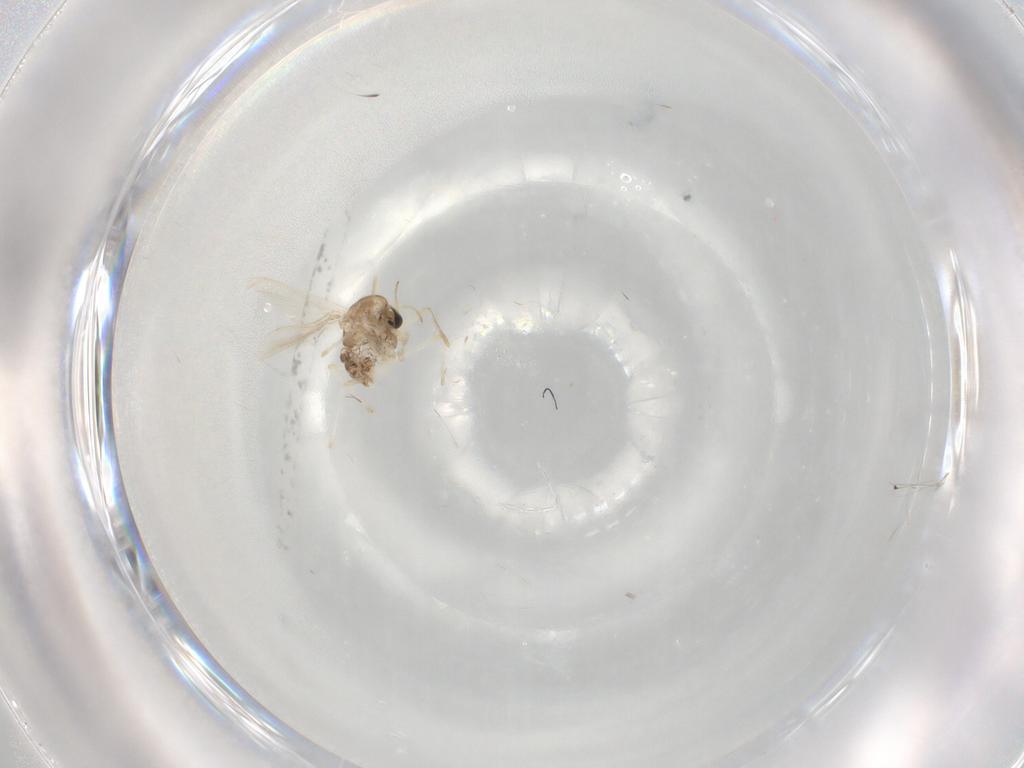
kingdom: Animalia
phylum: Arthropoda
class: Insecta
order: Diptera
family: Chironomidae
